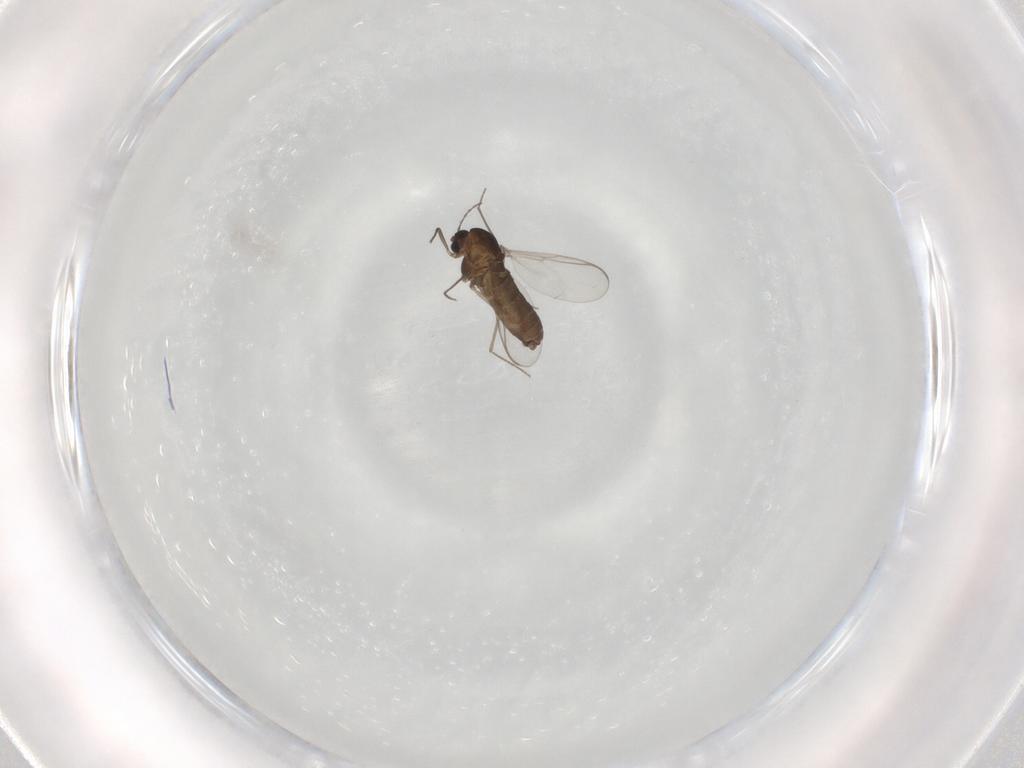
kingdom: Animalia
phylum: Arthropoda
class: Insecta
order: Diptera
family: Chironomidae
